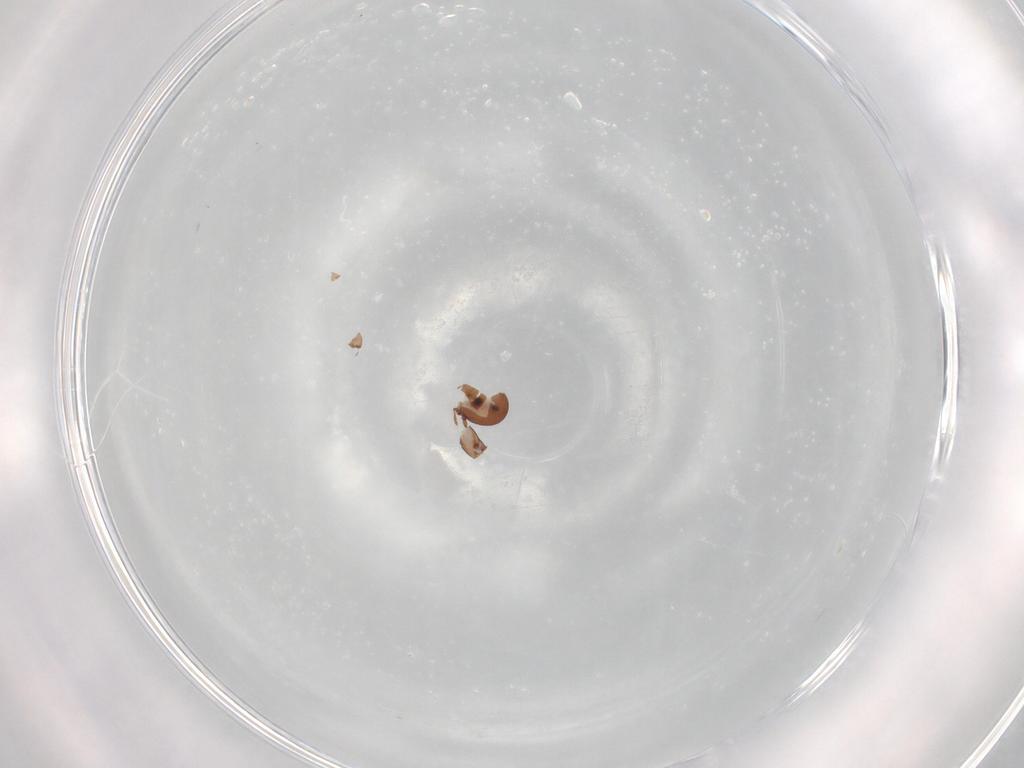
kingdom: Animalia
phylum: Arthropoda
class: Arachnida
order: Sarcoptiformes
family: Eremaeidae
